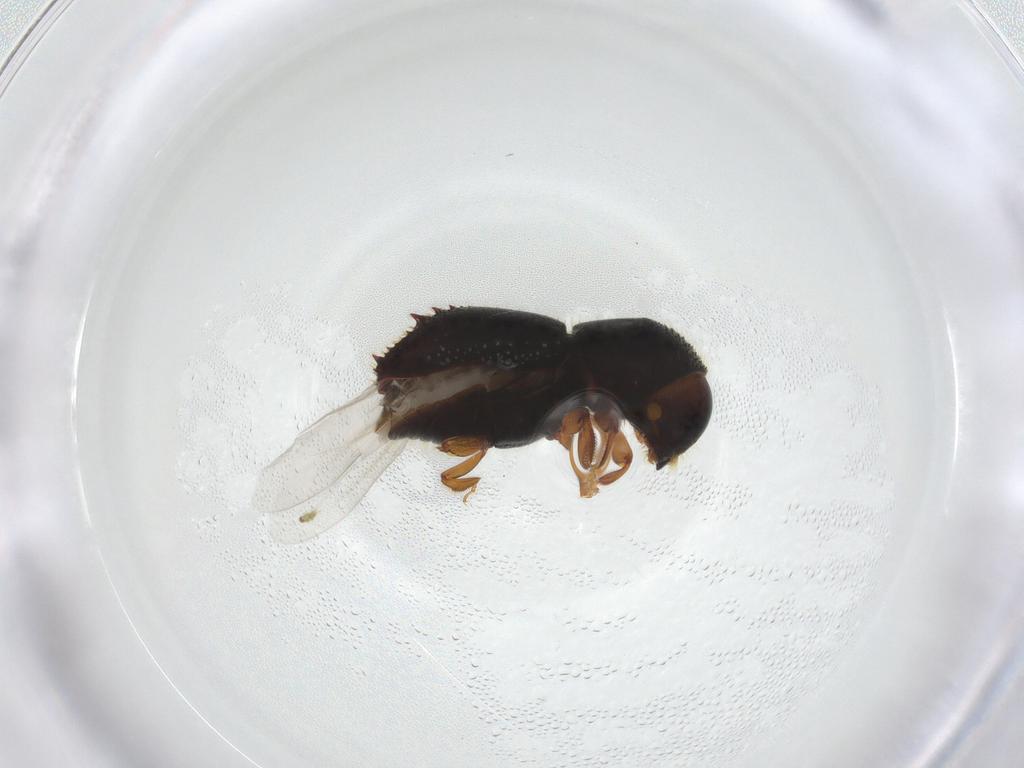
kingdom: Animalia
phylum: Arthropoda
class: Insecta
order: Coleoptera
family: Curculionidae
